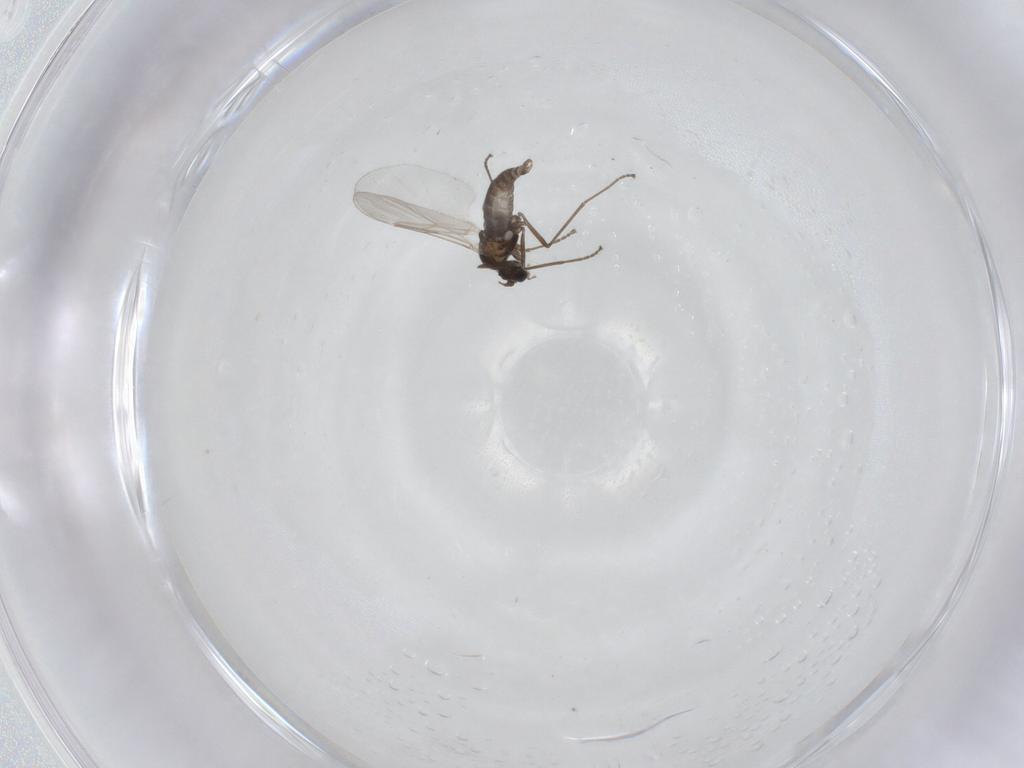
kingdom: Animalia
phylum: Arthropoda
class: Insecta
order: Diptera
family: Cecidomyiidae
